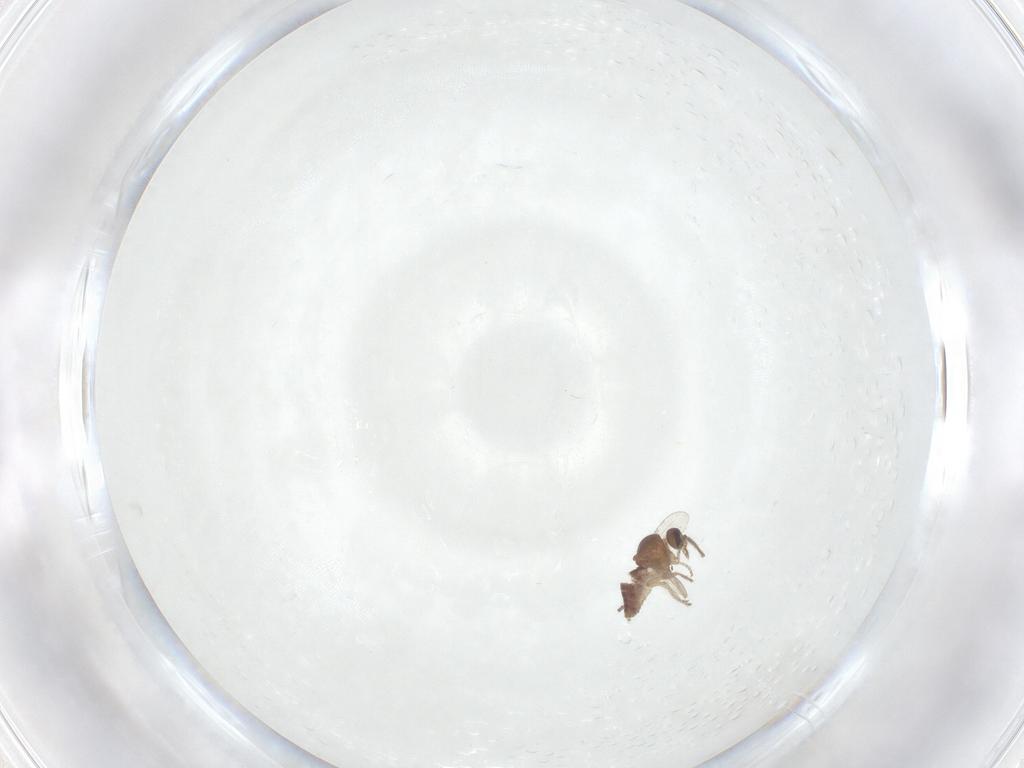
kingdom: Animalia
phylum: Arthropoda
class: Insecta
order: Diptera
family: Ceratopogonidae
